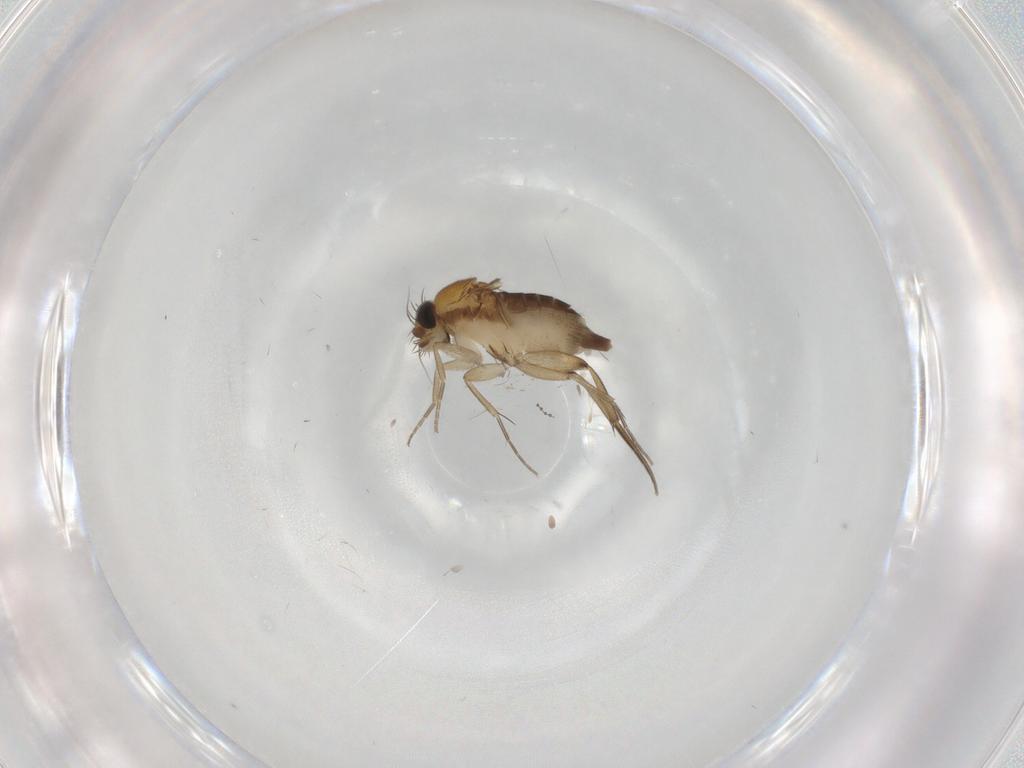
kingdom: Animalia
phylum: Arthropoda
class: Insecta
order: Diptera
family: Phoridae
